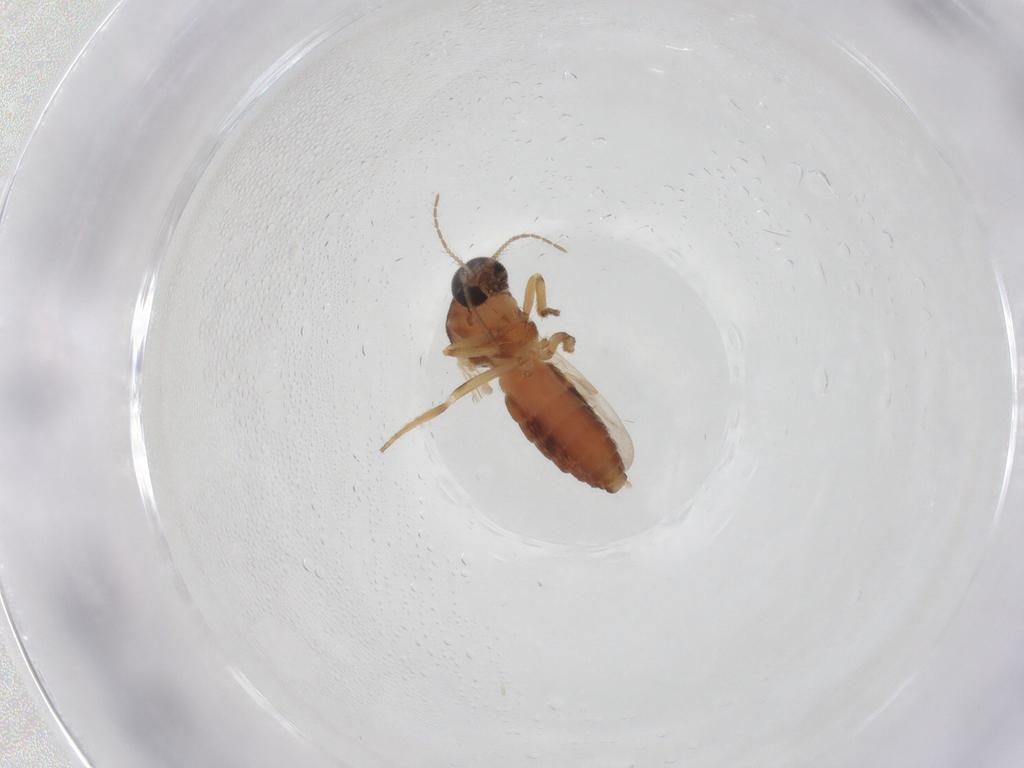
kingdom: Animalia
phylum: Arthropoda
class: Insecta
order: Diptera
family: Ceratopogonidae
